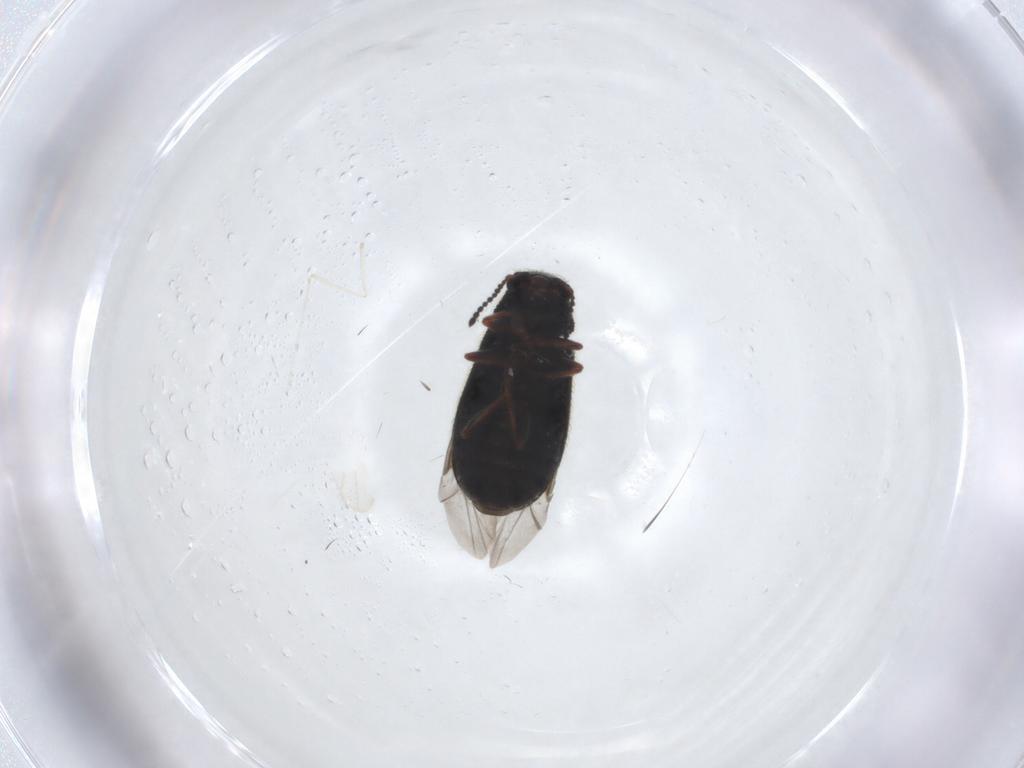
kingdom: Animalia
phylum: Arthropoda
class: Insecta
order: Coleoptera
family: Melyridae
